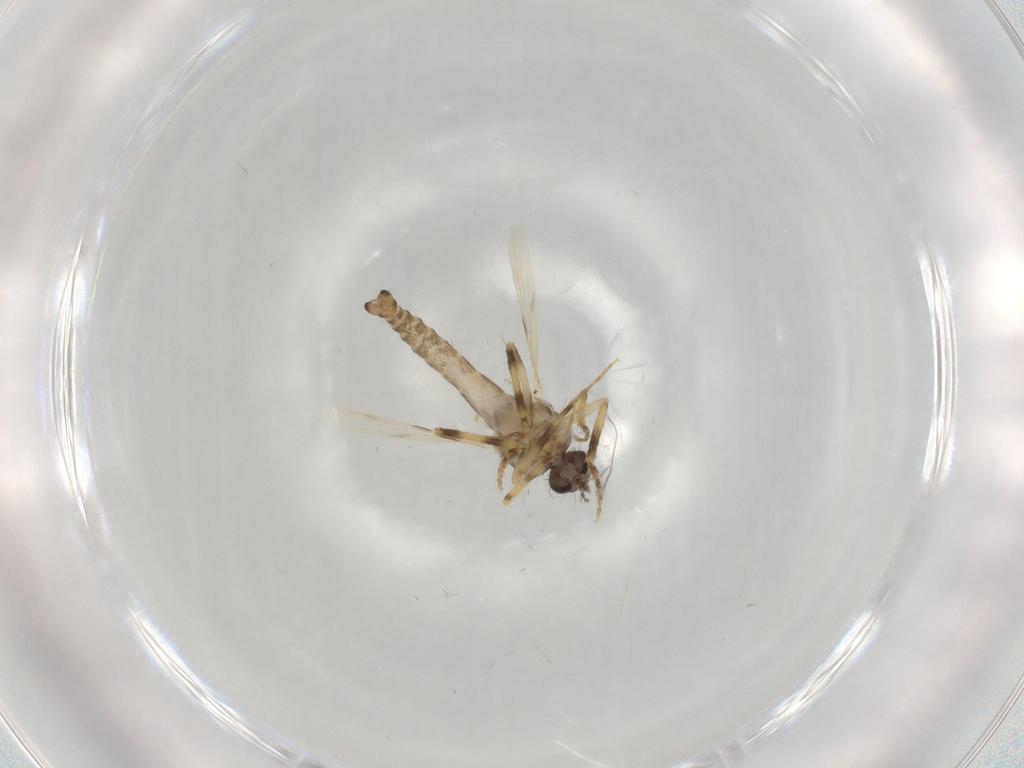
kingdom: Animalia
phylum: Arthropoda
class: Insecta
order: Diptera
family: Ceratopogonidae
